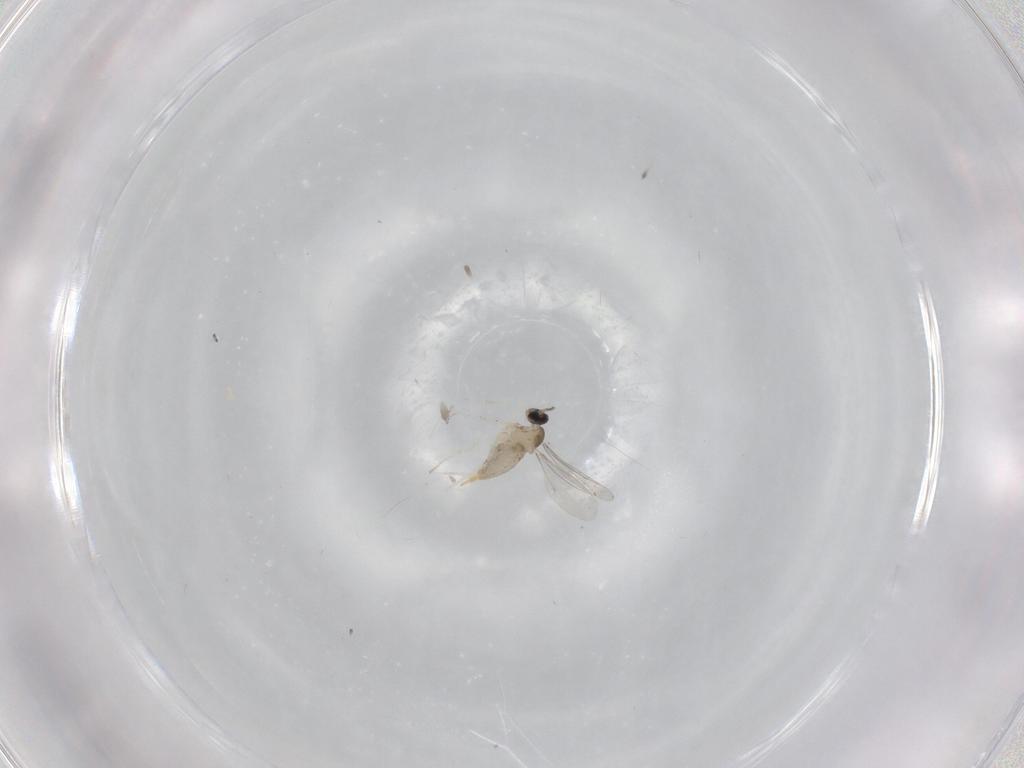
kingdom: Animalia
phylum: Arthropoda
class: Insecta
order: Diptera
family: Cecidomyiidae
